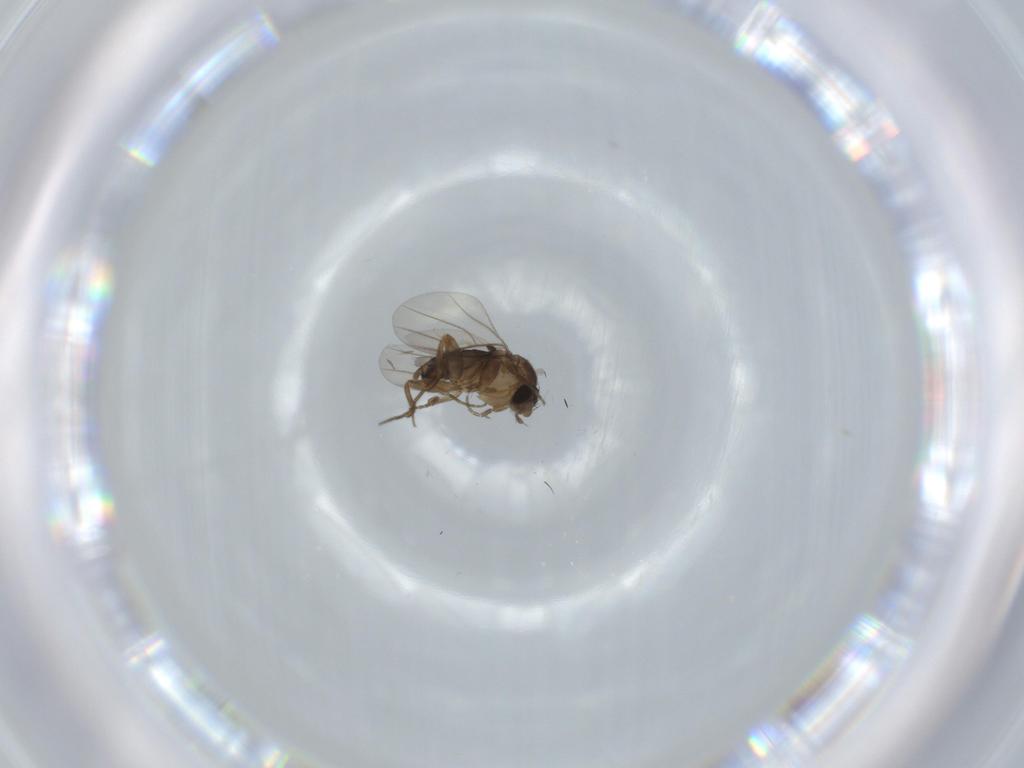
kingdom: Animalia
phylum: Arthropoda
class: Insecta
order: Diptera
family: Phoridae
